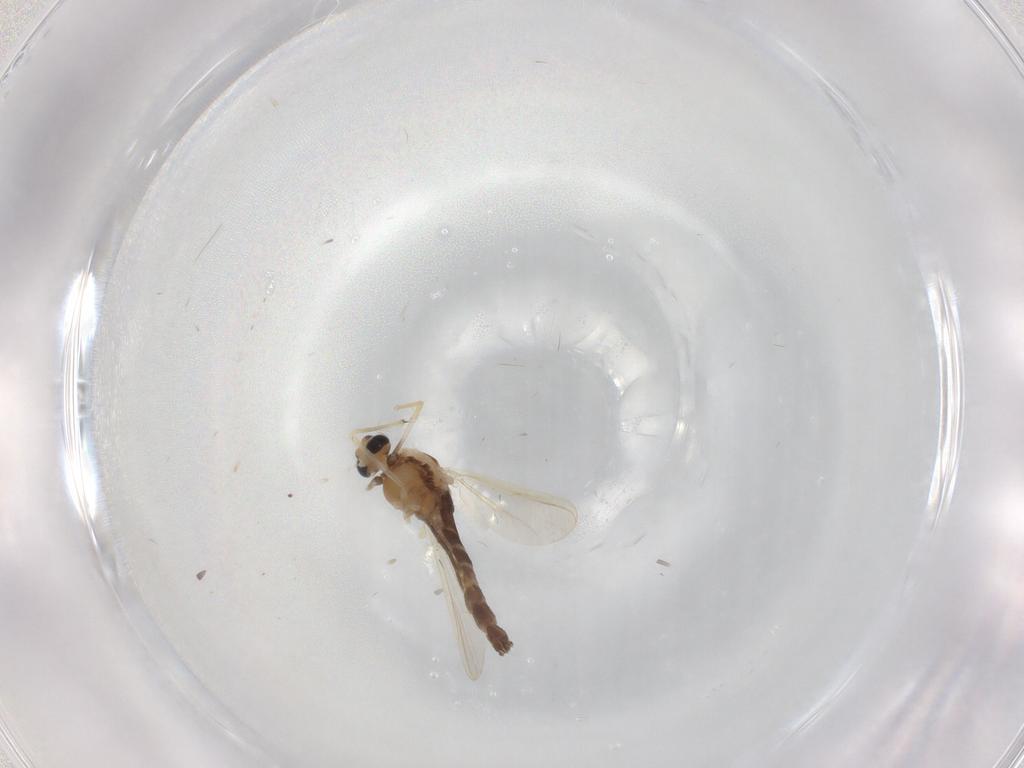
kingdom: Animalia
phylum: Arthropoda
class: Insecta
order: Diptera
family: Chironomidae
